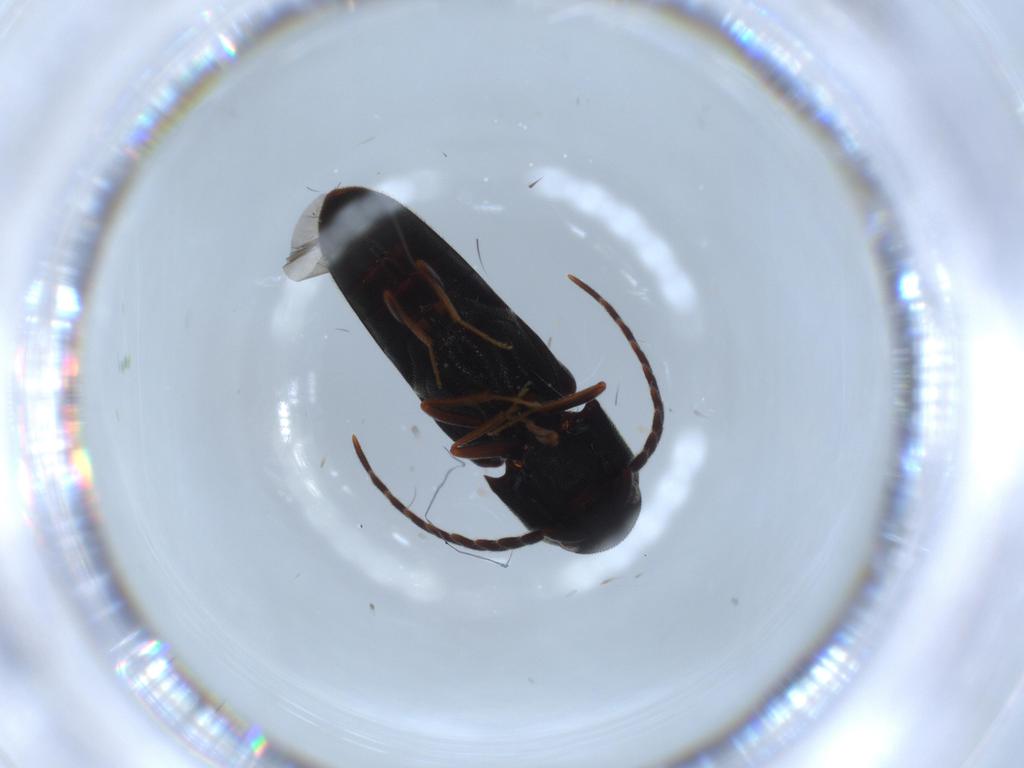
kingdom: Animalia
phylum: Arthropoda
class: Insecta
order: Coleoptera
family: Eucnemidae
